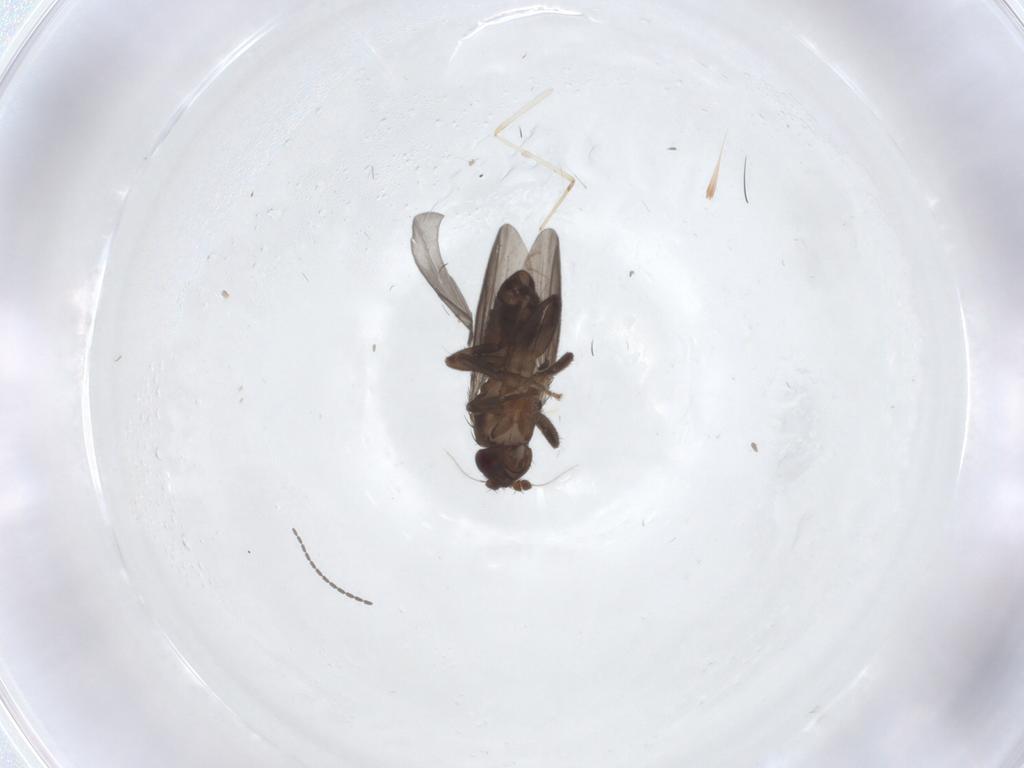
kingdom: Animalia
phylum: Arthropoda
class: Insecta
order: Diptera
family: Sphaeroceridae
